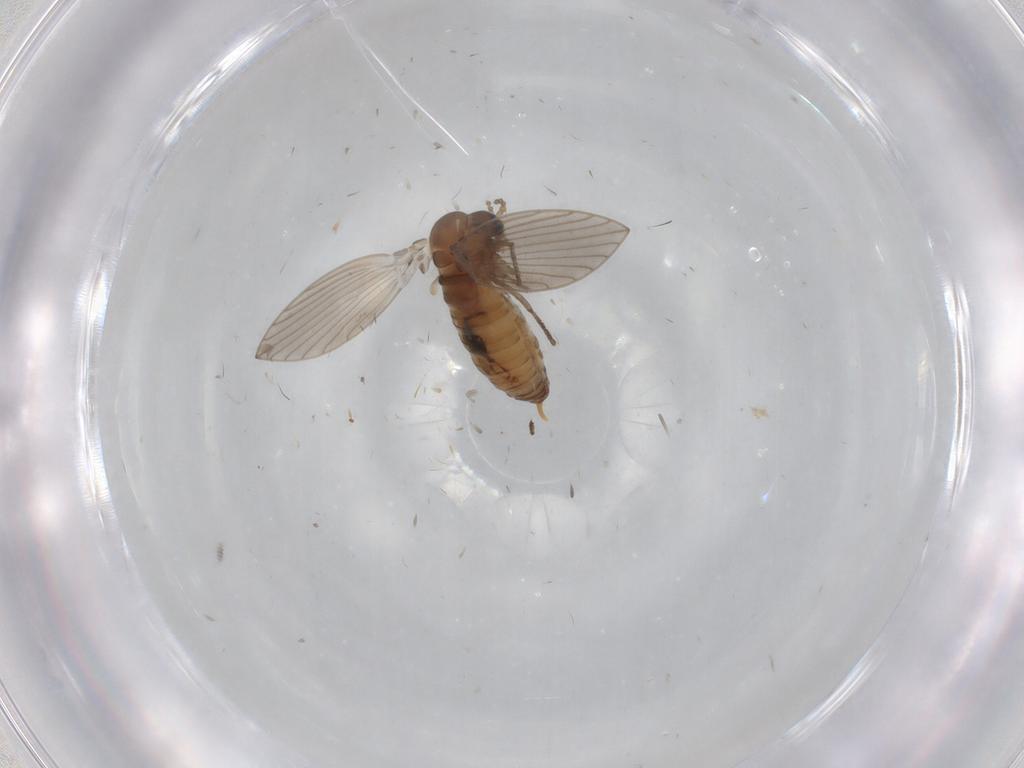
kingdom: Animalia
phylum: Arthropoda
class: Insecta
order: Diptera
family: Psychodidae
